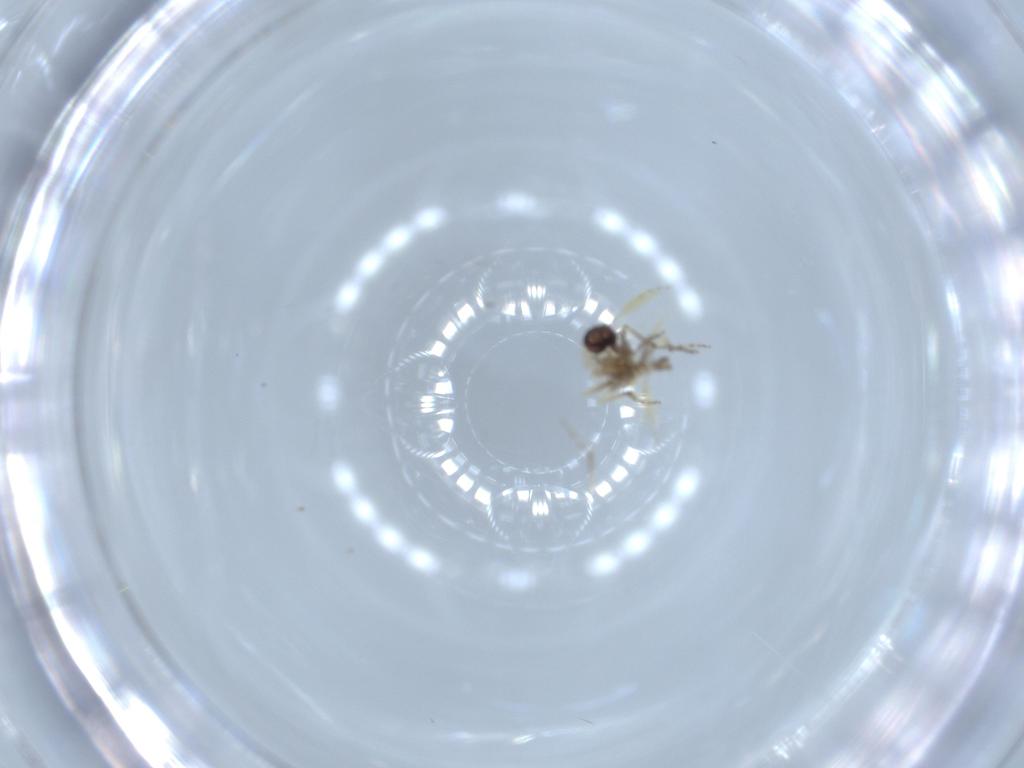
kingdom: Animalia
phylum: Arthropoda
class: Insecta
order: Diptera
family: Ceratopogonidae
